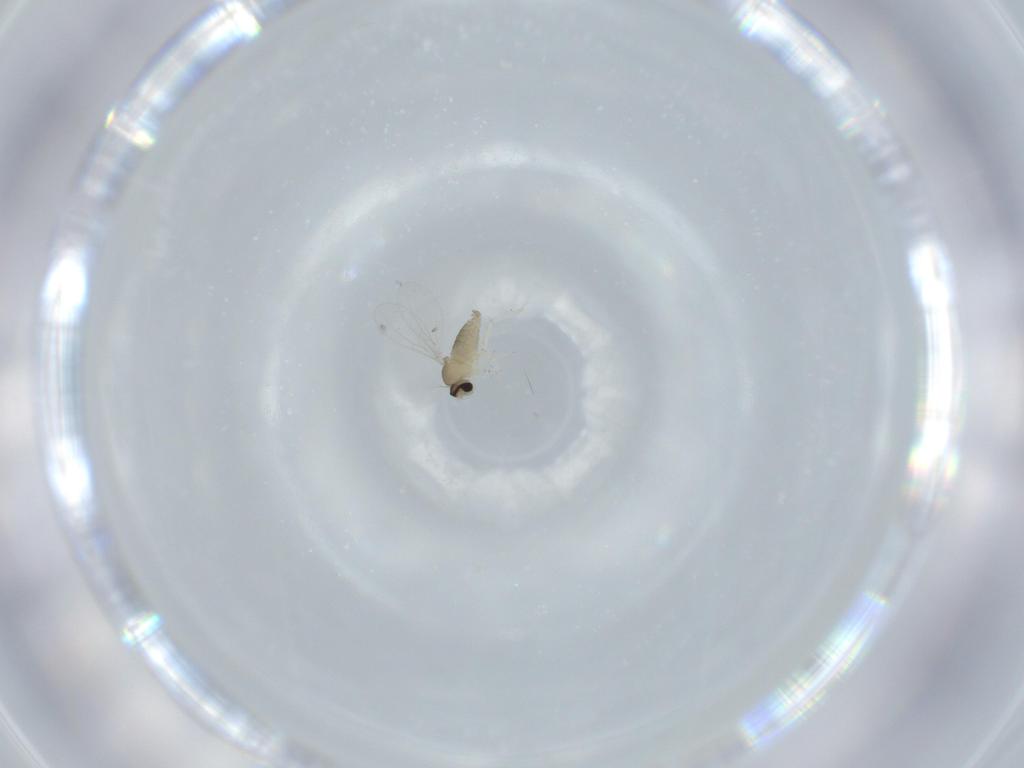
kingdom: Animalia
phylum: Arthropoda
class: Insecta
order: Diptera
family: Cecidomyiidae
